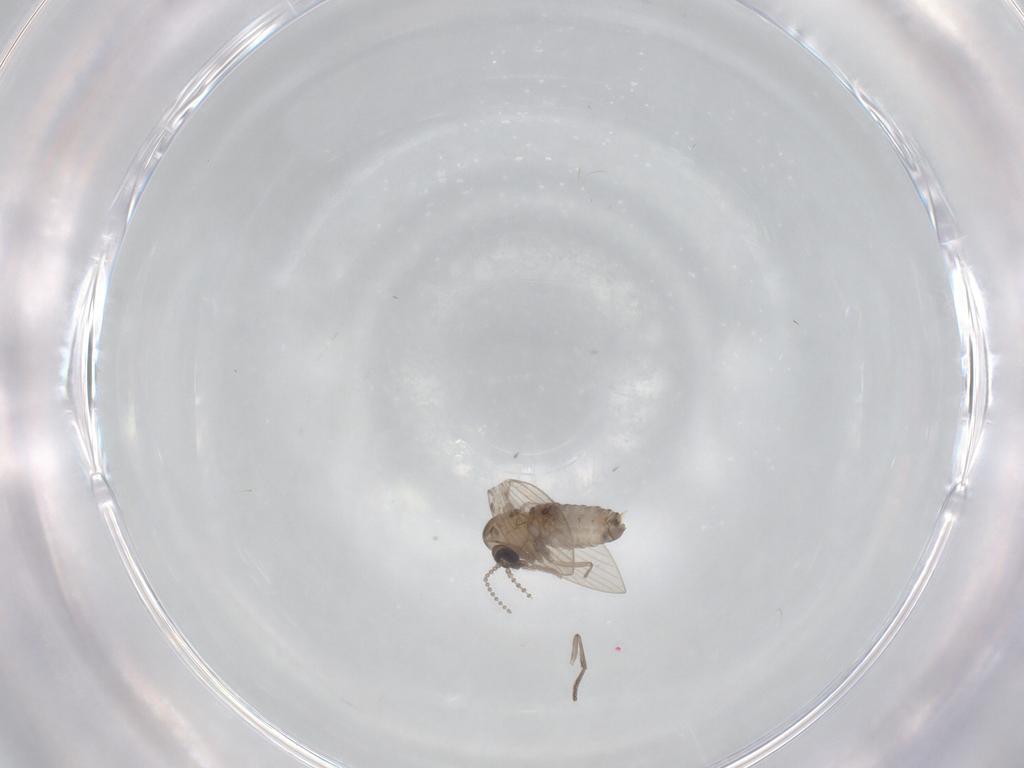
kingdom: Animalia
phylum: Arthropoda
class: Insecta
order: Diptera
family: Psychodidae
